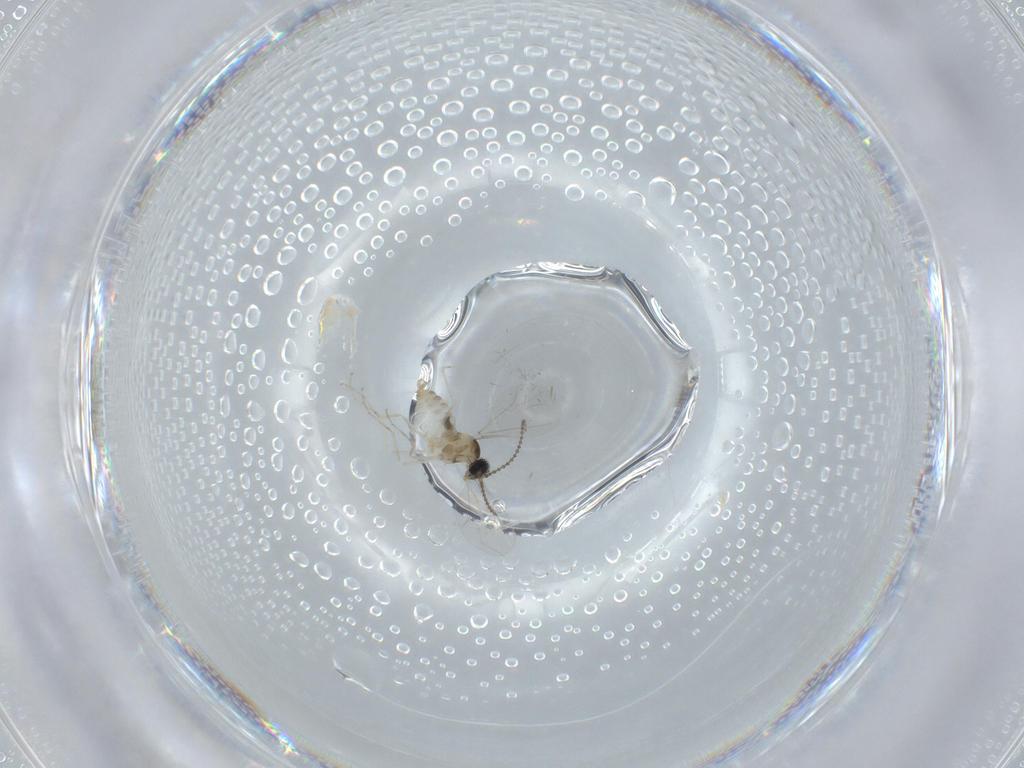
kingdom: Animalia
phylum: Arthropoda
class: Insecta
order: Diptera
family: Cecidomyiidae
